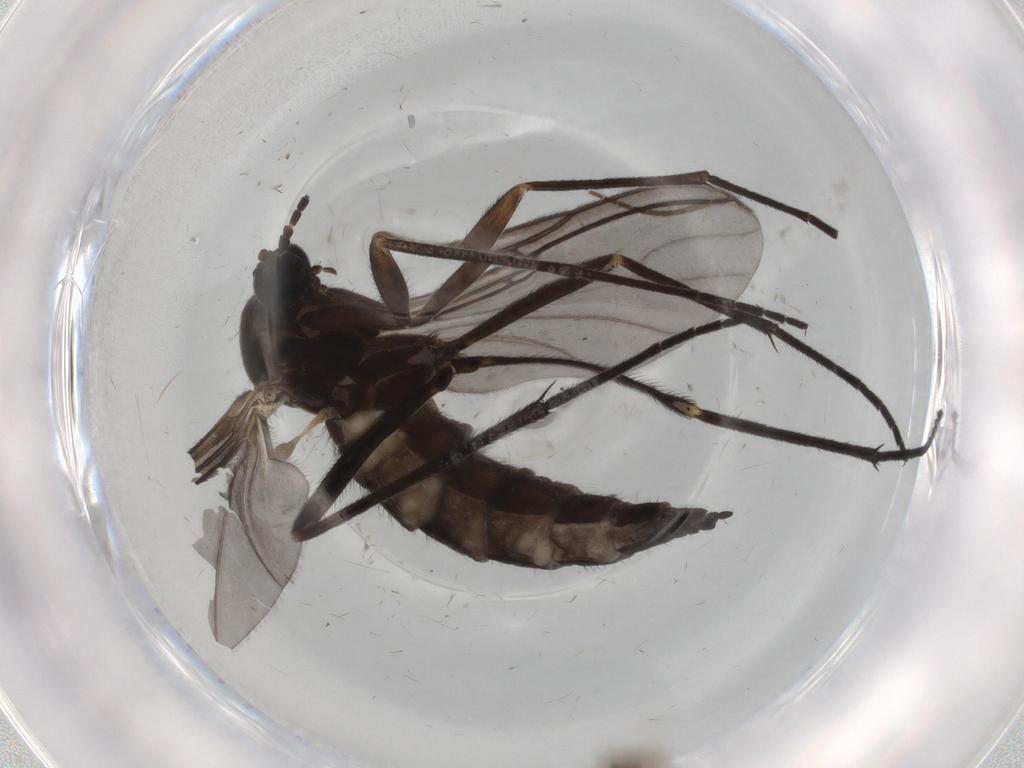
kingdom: Animalia
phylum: Arthropoda
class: Insecta
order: Diptera
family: Sciaridae
